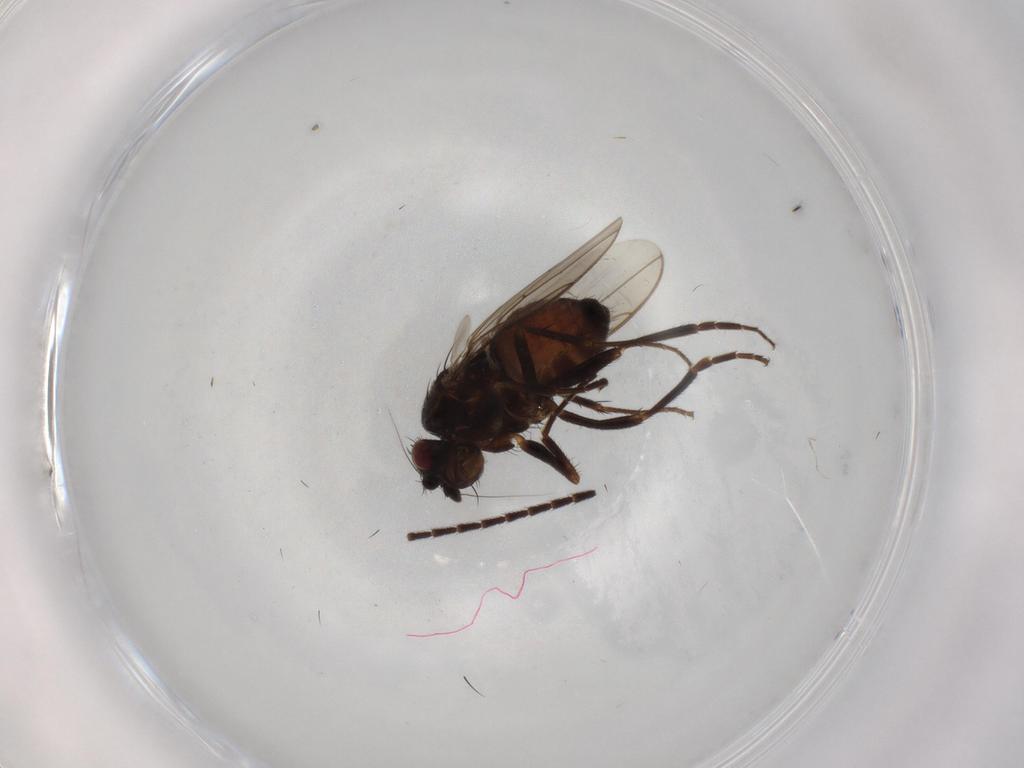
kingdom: Animalia
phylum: Arthropoda
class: Insecta
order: Diptera
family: Sphaeroceridae
